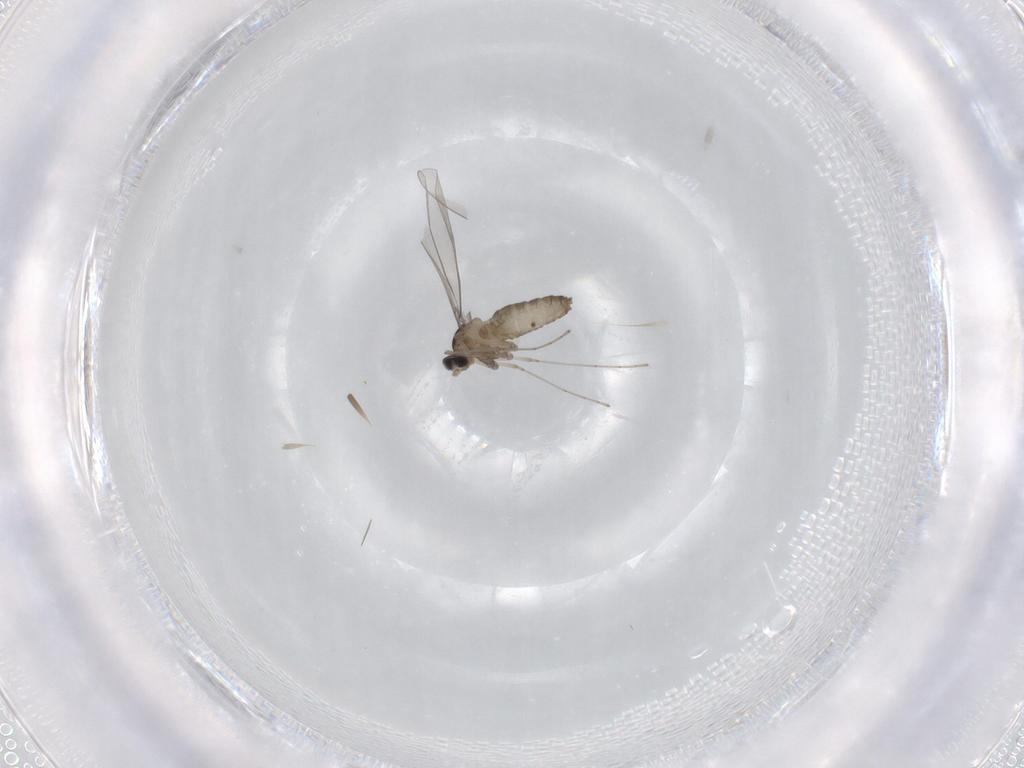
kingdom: Animalia
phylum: Arthropoda
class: Insecta
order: Diptera
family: Cecidomyiidae
